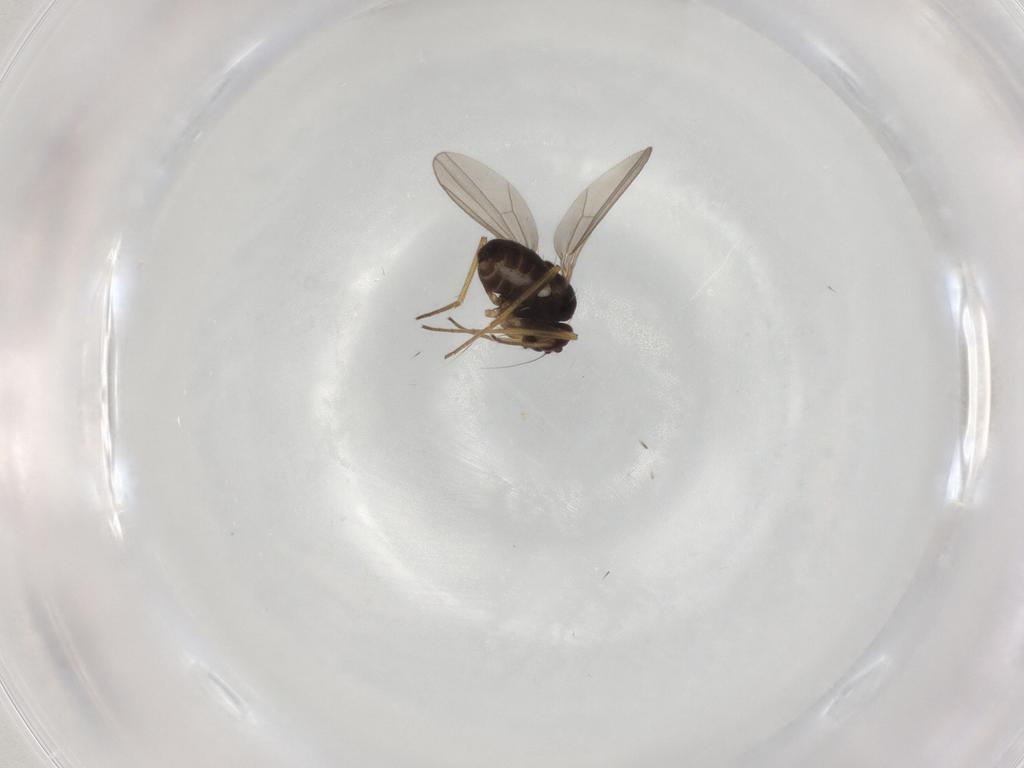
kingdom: Animalia
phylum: Arthropoda
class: Insecta
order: Diptera
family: Dolichopodidae
